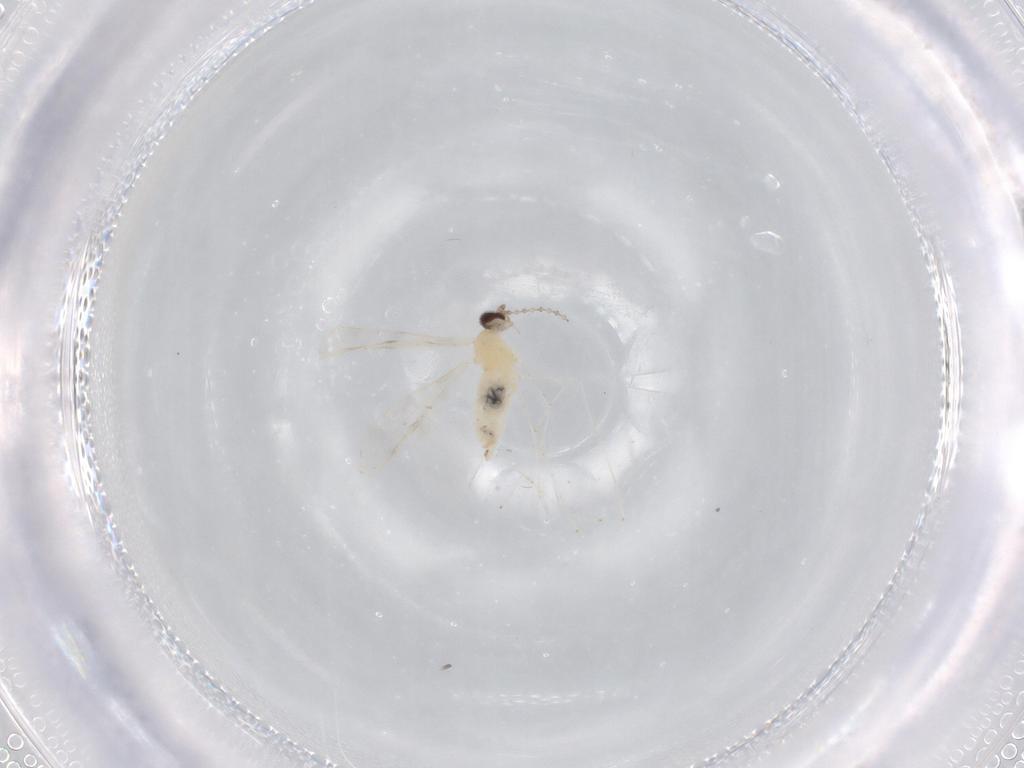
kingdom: Animalia
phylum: Arthropoda
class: Insecta
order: Diptera
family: Cecidomyiidae
